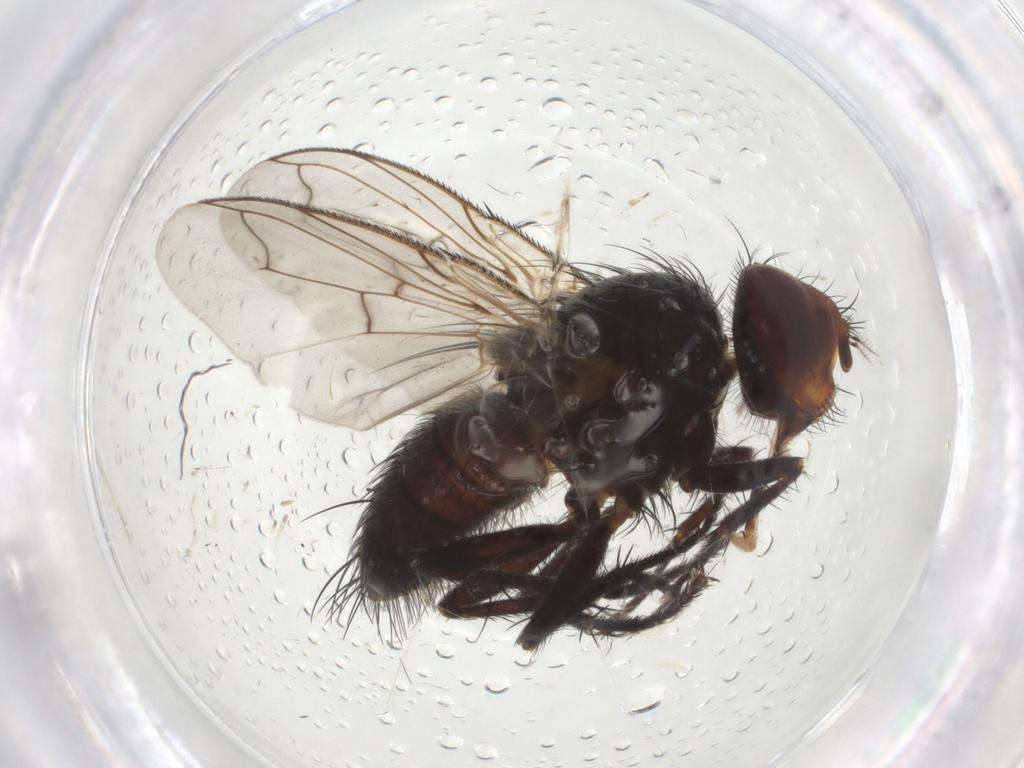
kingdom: Animalia
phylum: Arthropoda
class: Insecta
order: Diptera
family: Tachinidae
